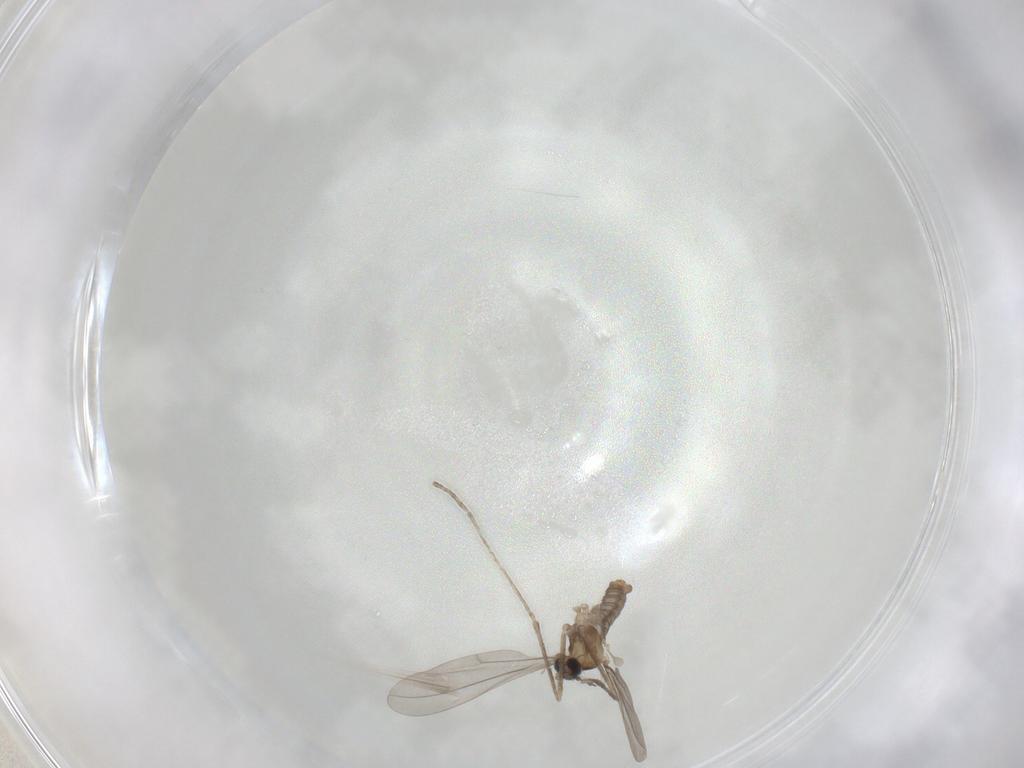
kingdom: Animalia
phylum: Arthropoda
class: Insecta
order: Diptera
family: Cecidomyiidae
